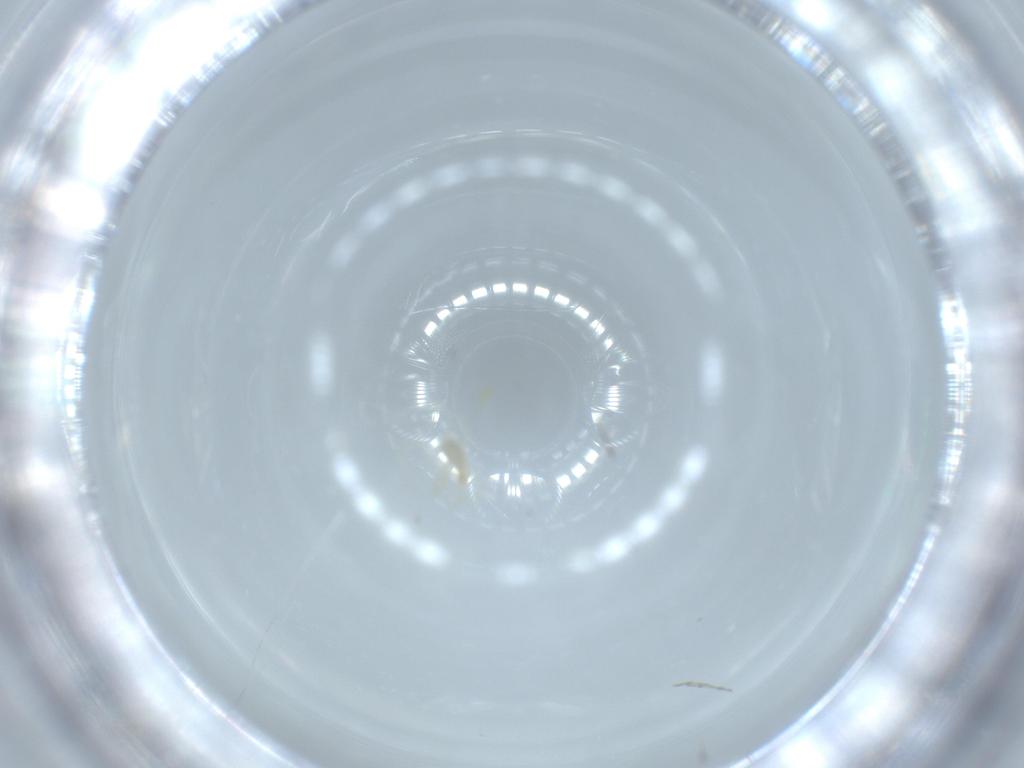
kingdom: Animalia
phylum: Arthropoda
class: Arachnida
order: Trombidiformes
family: Erythraeidae
